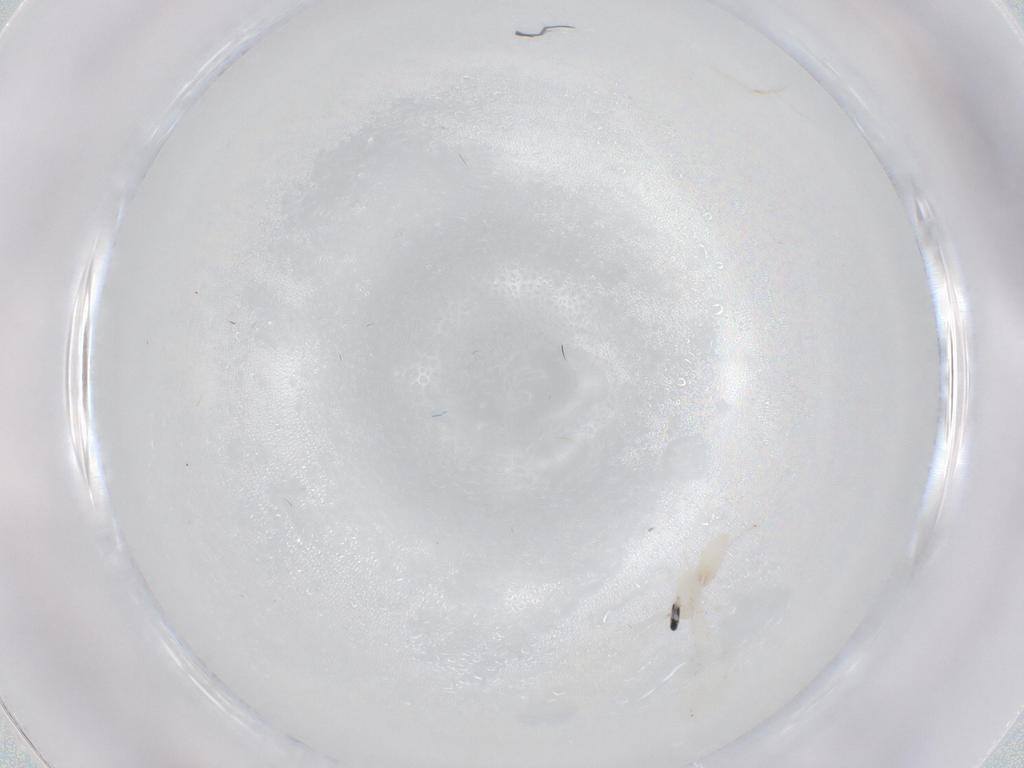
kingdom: Animalia
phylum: Arthropoda
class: Insecta
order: Diptera
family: Cecidomyiidae
